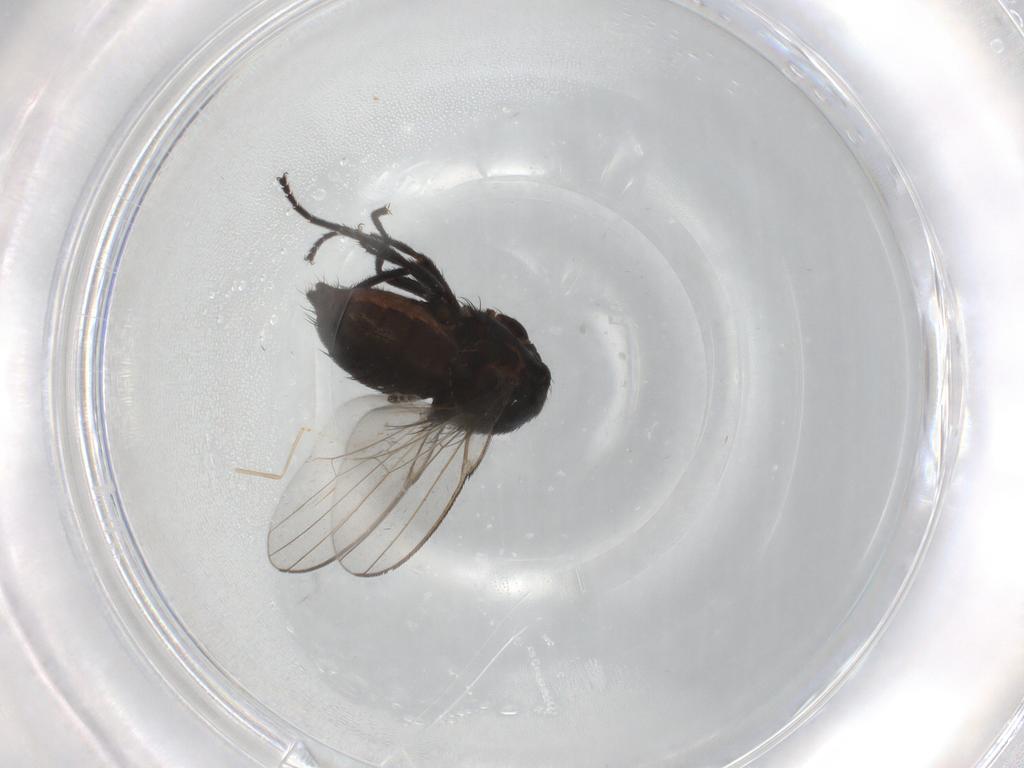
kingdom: Animalia
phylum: Arthropoda
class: Insecta
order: Diptera
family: Milichiidae
